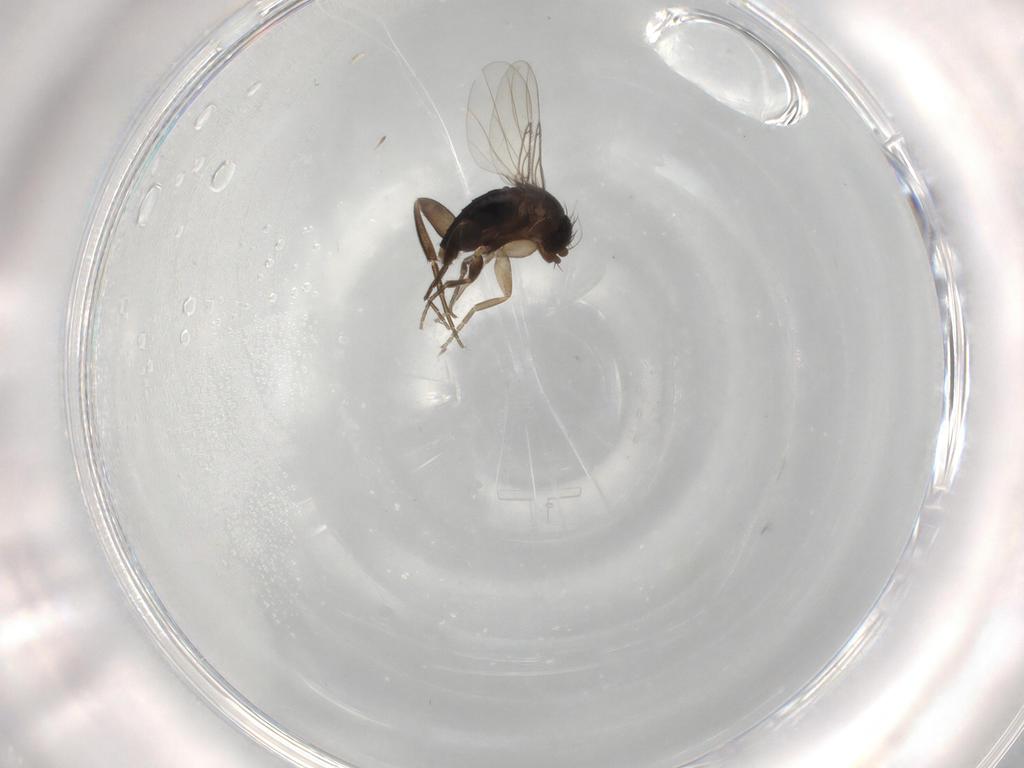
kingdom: Animalia
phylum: Arthropoda
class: Insecta
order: Diptera
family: Phoridae
